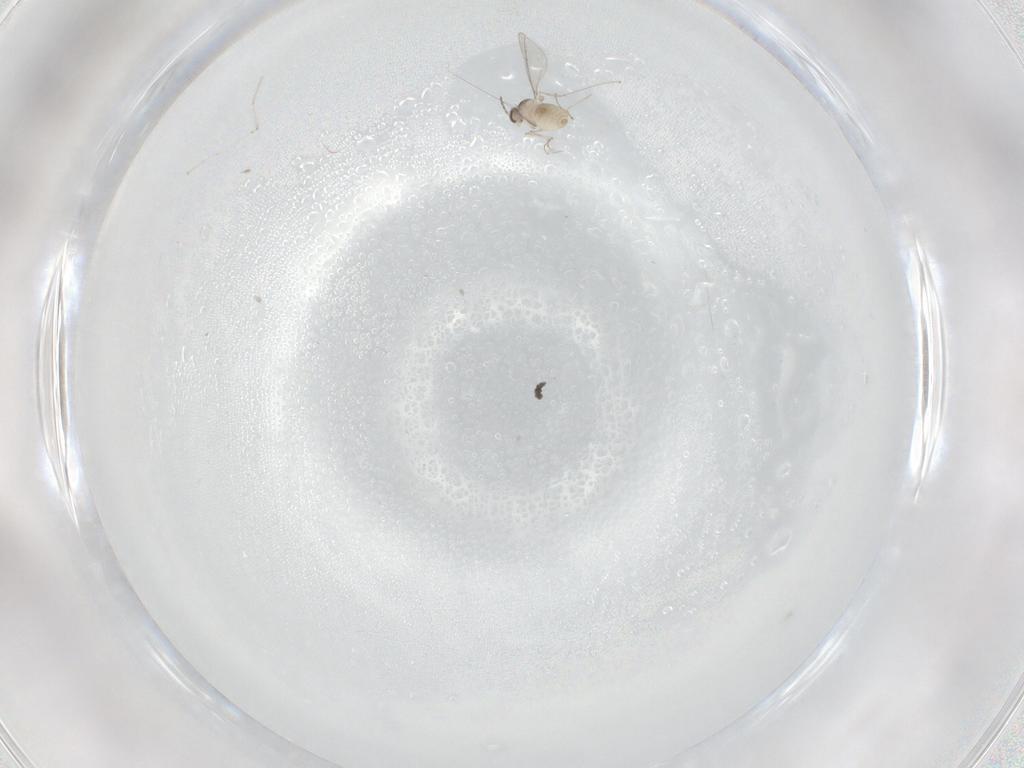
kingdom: Animalia
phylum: Arthropoda
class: Insecta
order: Diptera
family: Cecidomyiidae
